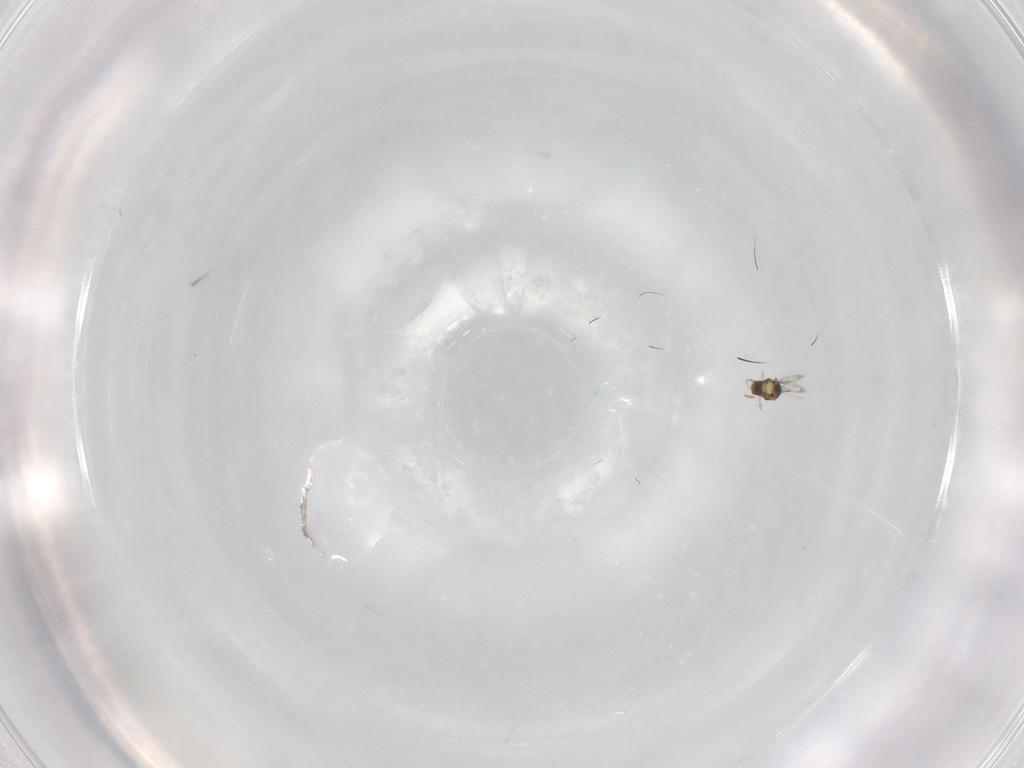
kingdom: Animalia
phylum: Arthropoda
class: Insecta
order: Hymenoptera
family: Aphelinidae
